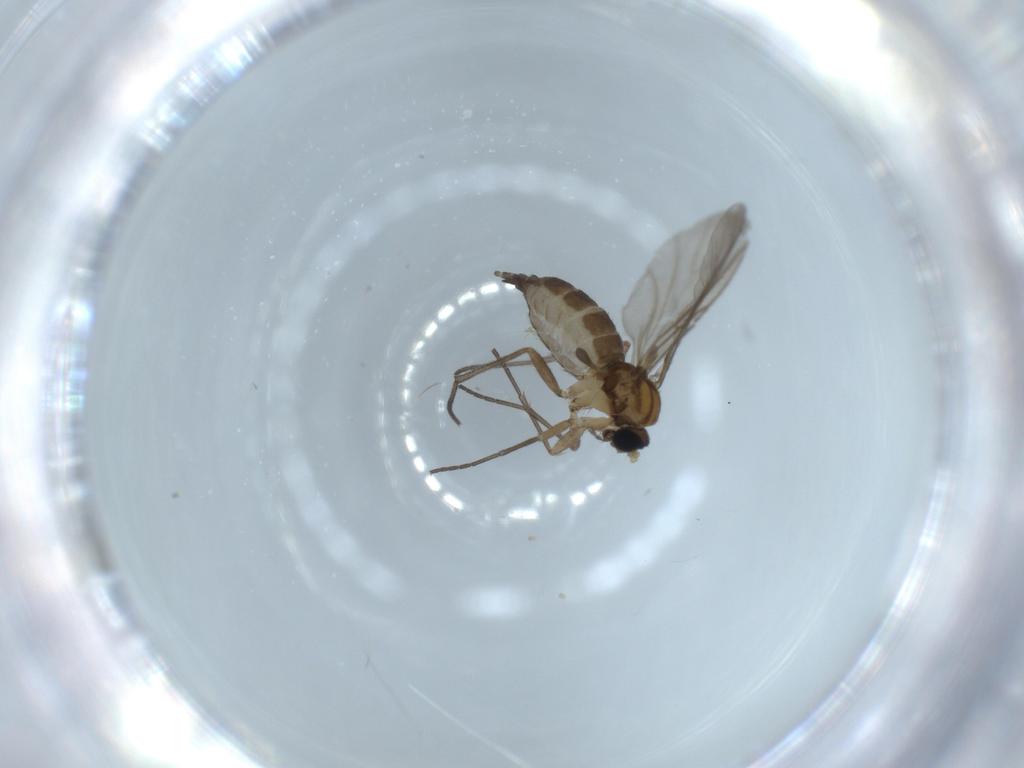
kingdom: Animalia
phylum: Arthropoda
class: Insecta
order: Diptera
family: Sciaridae
